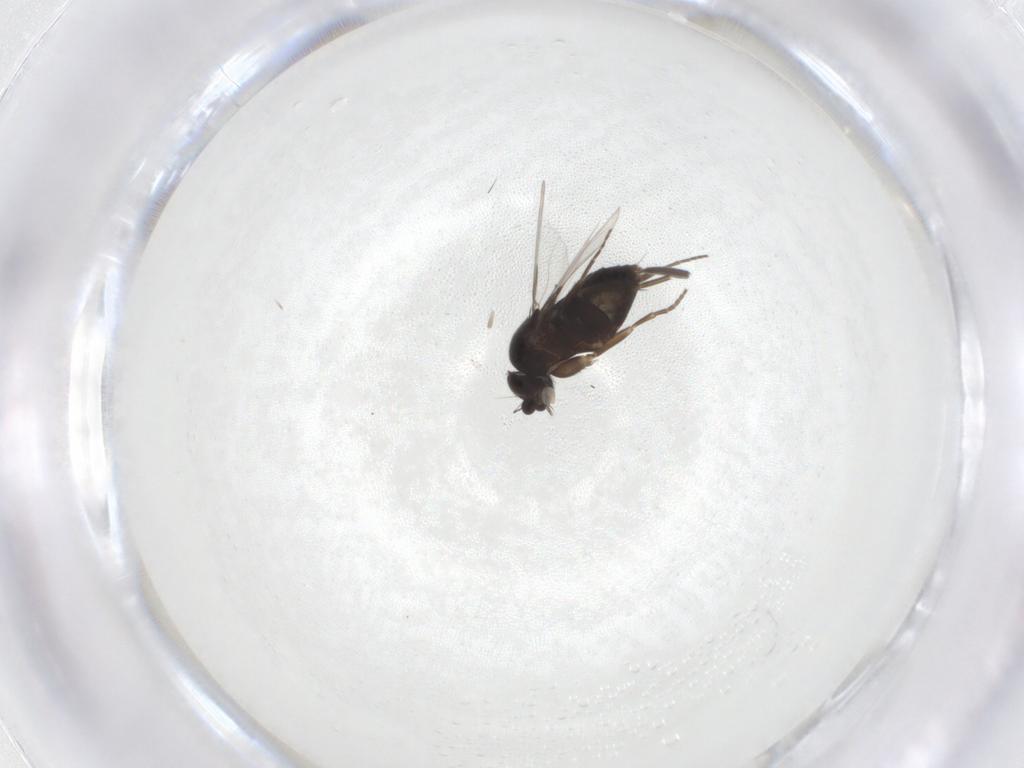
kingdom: Animalia
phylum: Arthropoda
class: Insecta
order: Diptera
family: Phoridae
